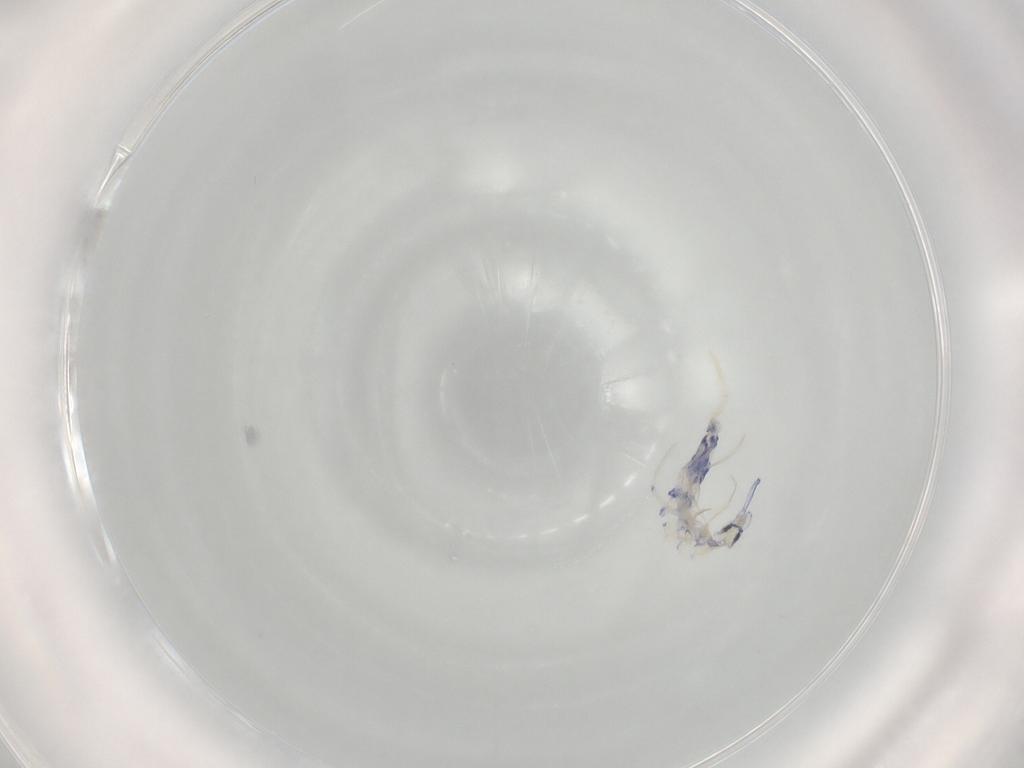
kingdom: Animalia
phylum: Arthropoda
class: Collembola
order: Entomobryomorpha
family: Entomobryidae
